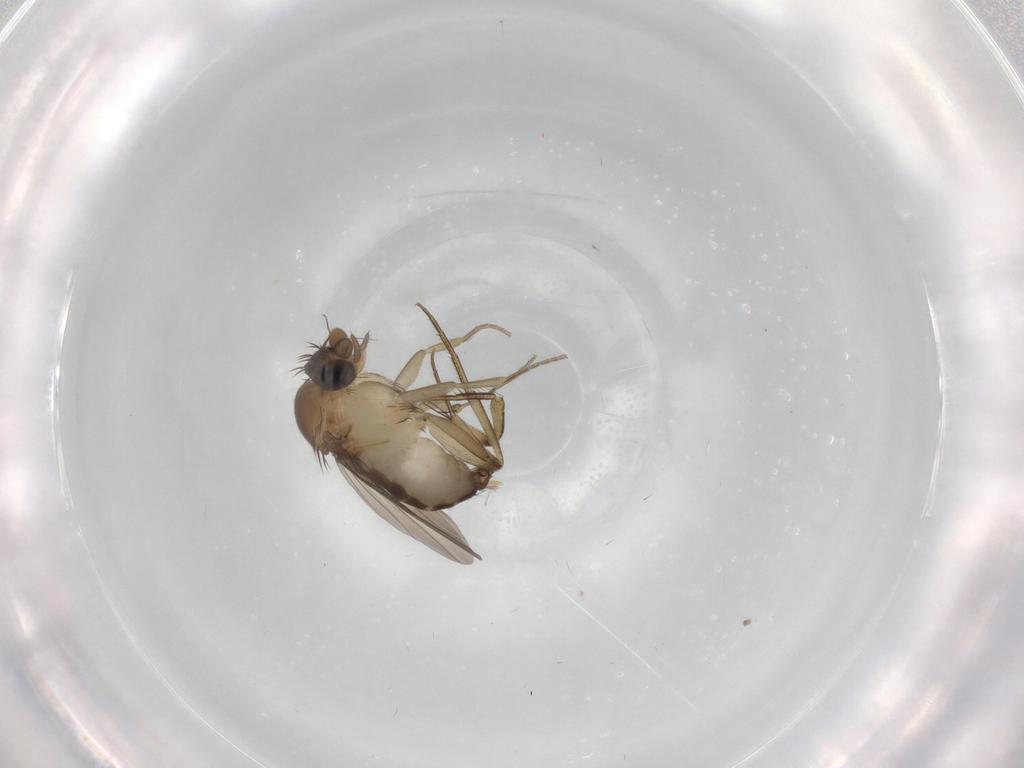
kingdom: Animalia
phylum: Arthropoda
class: Insecta
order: Diptera
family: Phoridae
